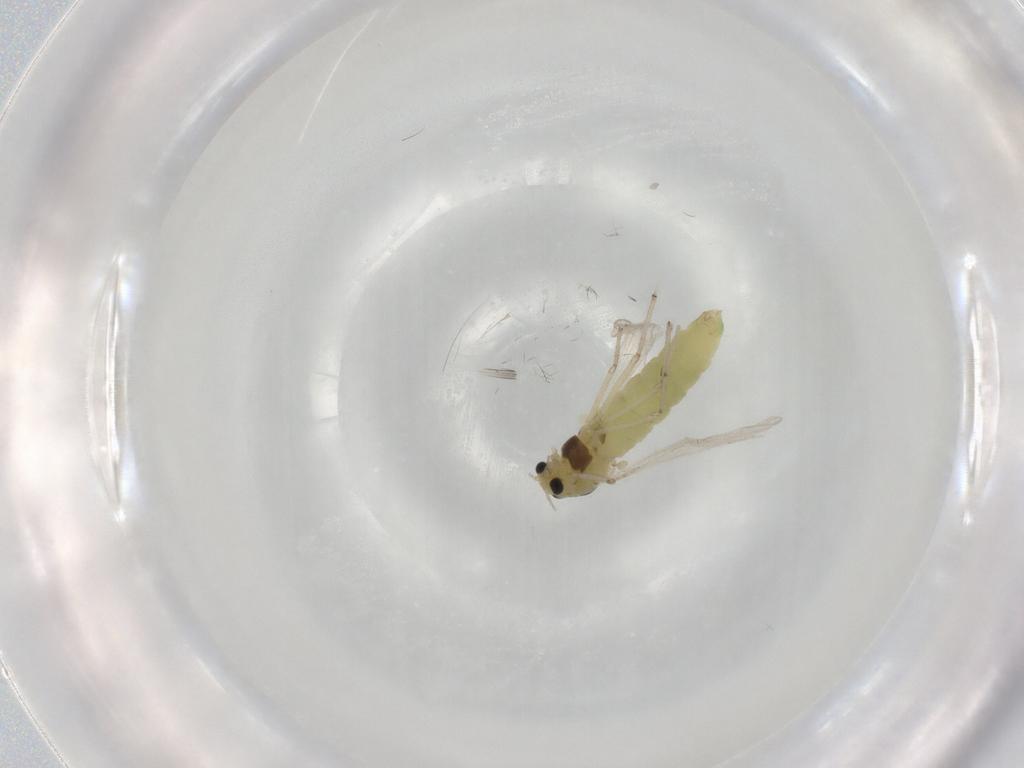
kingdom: Animalia
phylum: Arthropoda
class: Insecta
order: Diptera
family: Chironomidae
